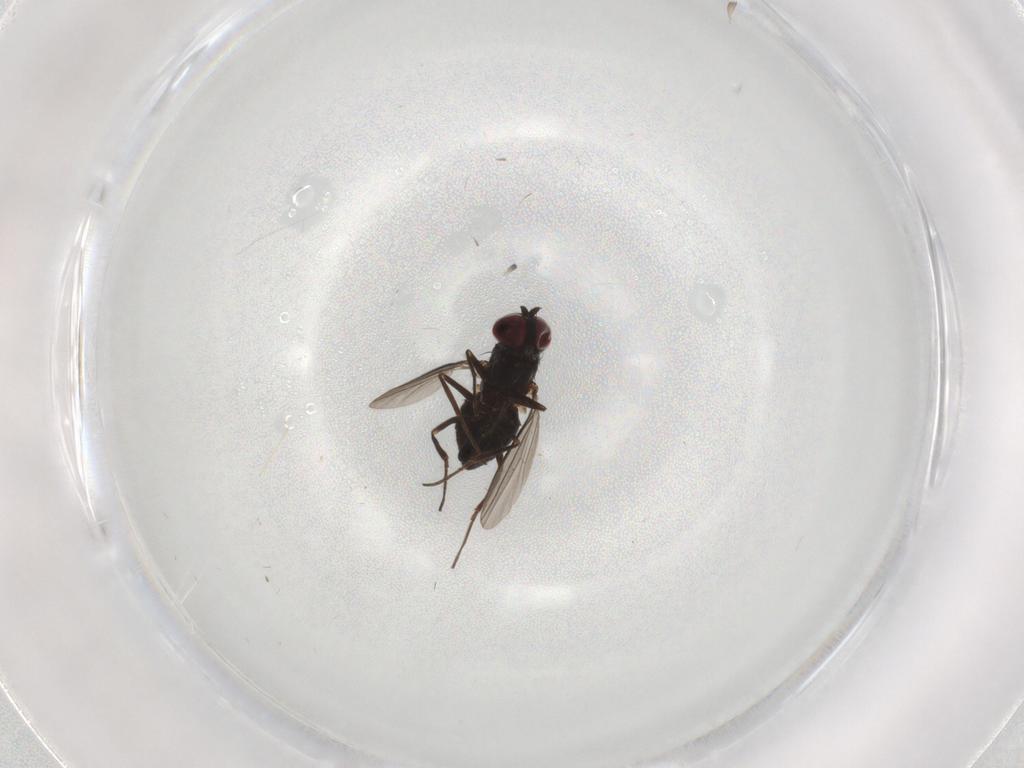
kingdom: Animalia
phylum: Arthropoda
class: Insecta
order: Diptera
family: Dolichopodidae
